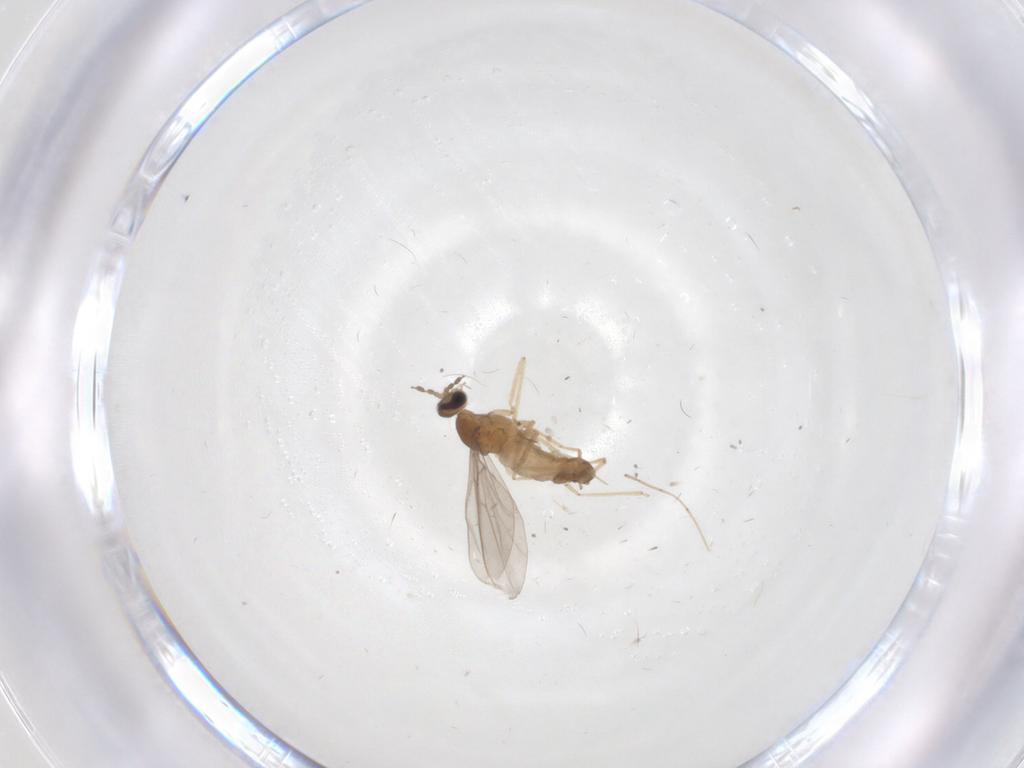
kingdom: Animalia
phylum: Arthropoda
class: Insecta
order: Diptera
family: Cecidomyiidae
